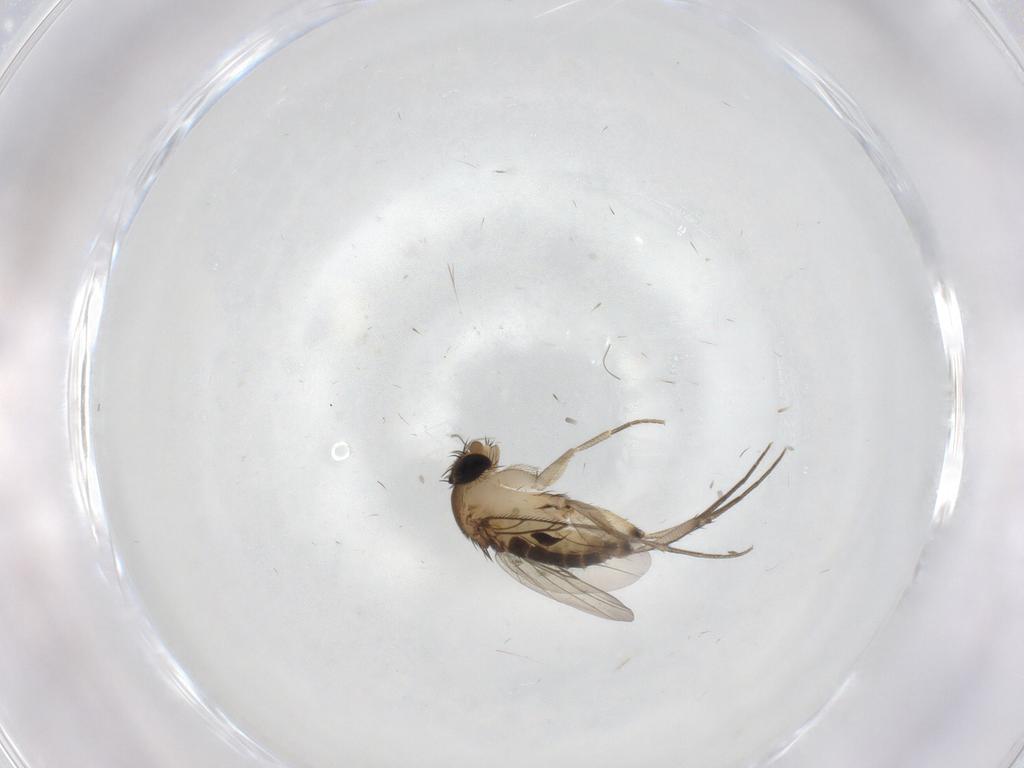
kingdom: Animalia
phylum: Arthropoda
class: Insecta
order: Diptera
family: Phoridae
